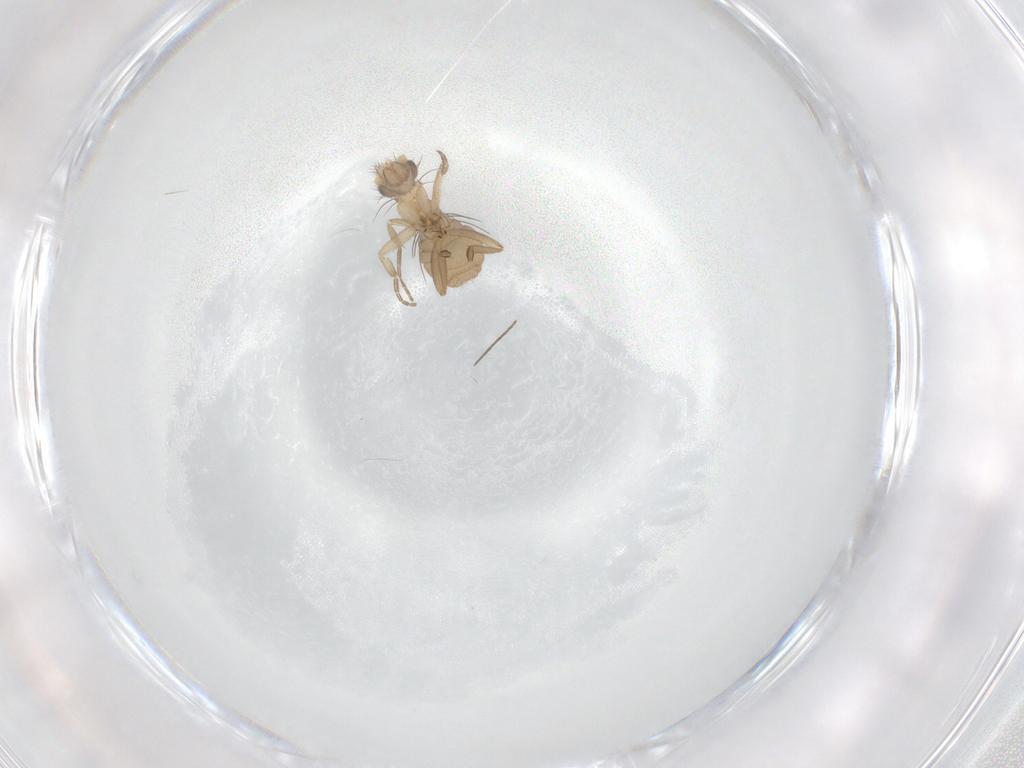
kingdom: Animalia
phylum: Arthropoda
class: Insecta
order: Diptera
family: Phoridae
